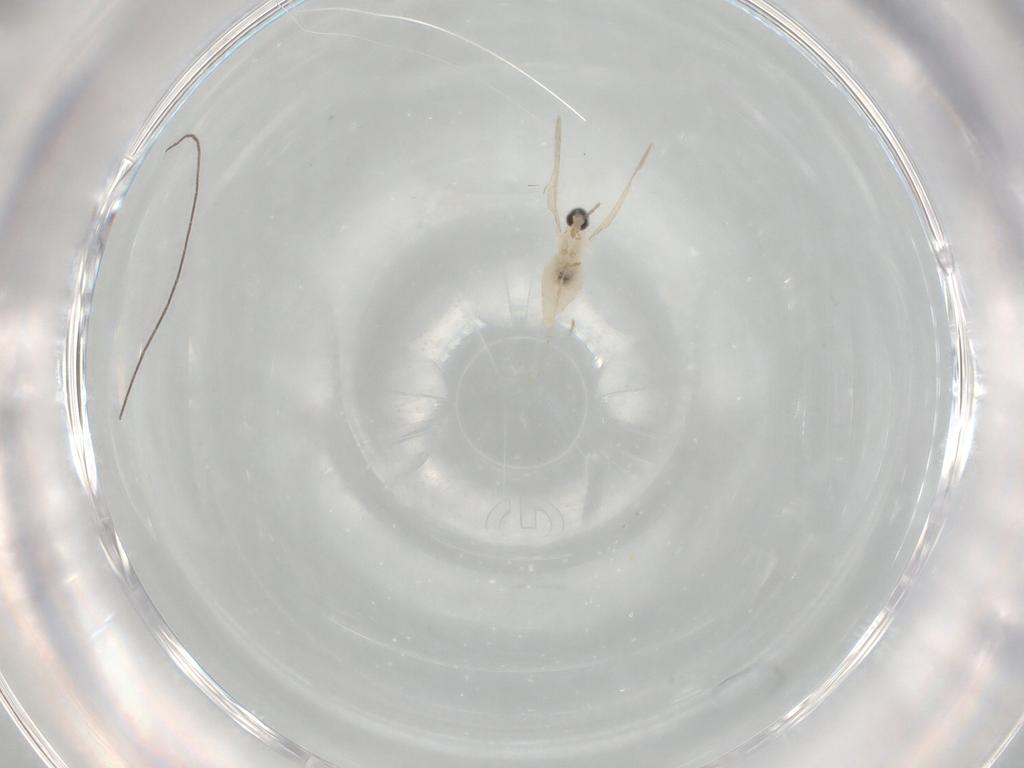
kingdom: Animalia
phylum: Arthropoda
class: Insecta
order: Diptera
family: Cecidomyiidae
